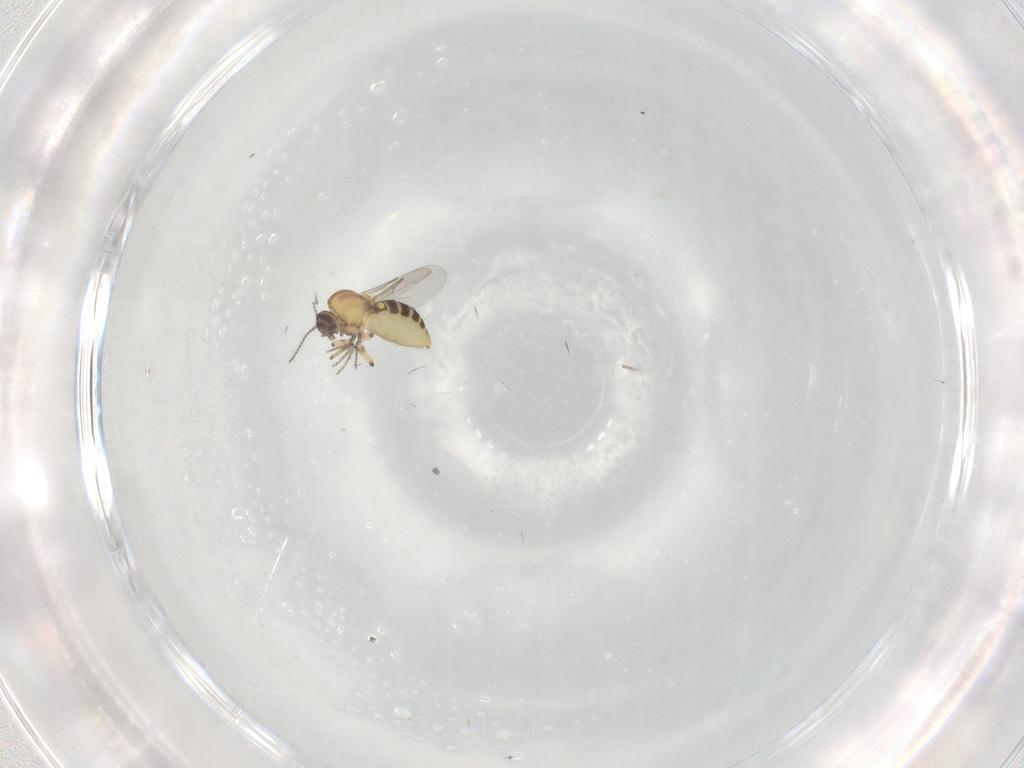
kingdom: Animalia
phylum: Arthropoda
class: Insecta
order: Diptera
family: Ceratopogonidae
